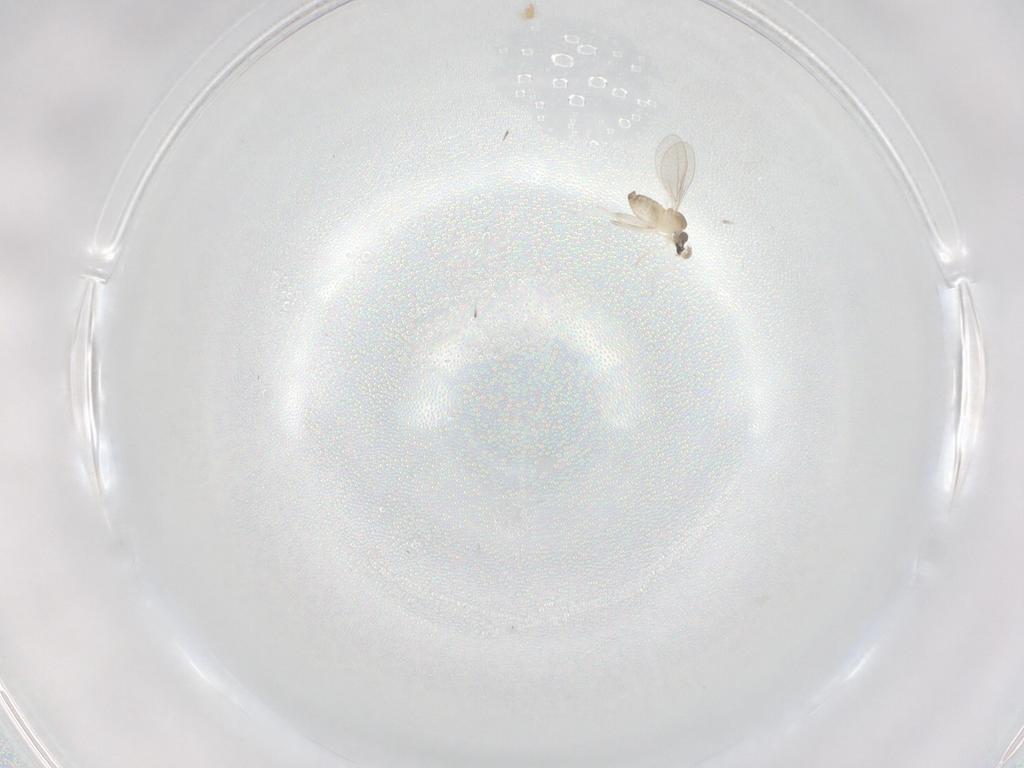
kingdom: Animalia
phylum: Arthropoda
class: Insecta
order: Diptera
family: Cecidomyiidae
